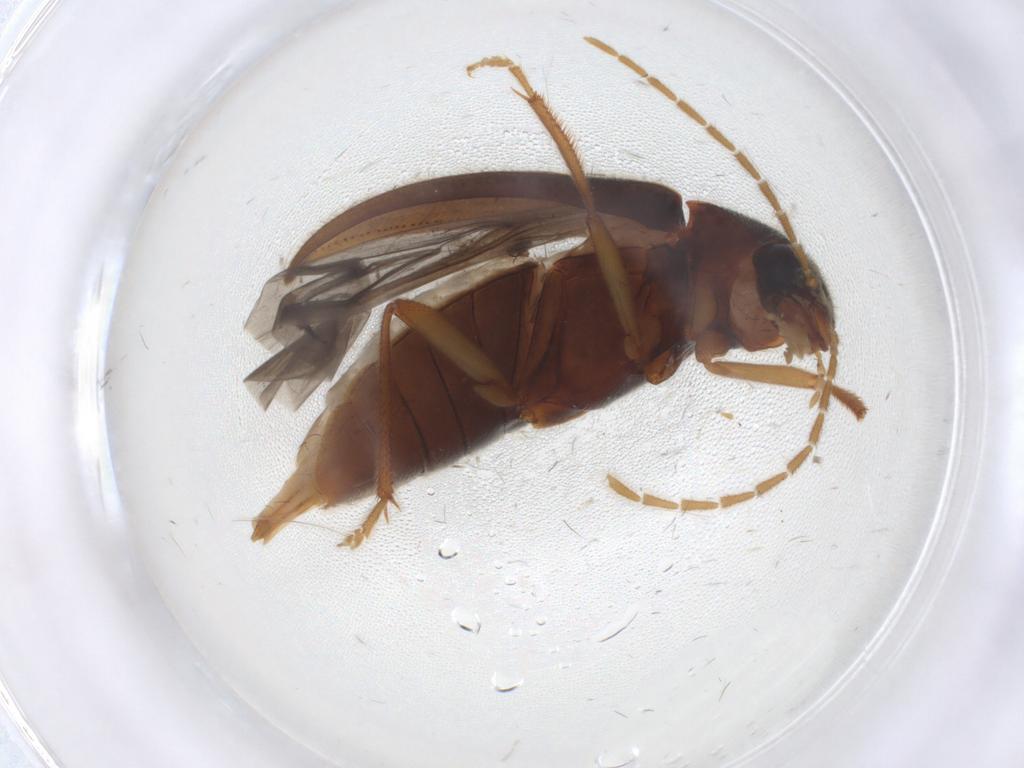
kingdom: Animalia
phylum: Arthropoda
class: Insecta
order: Coleoptera
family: Ptilodactylidae
